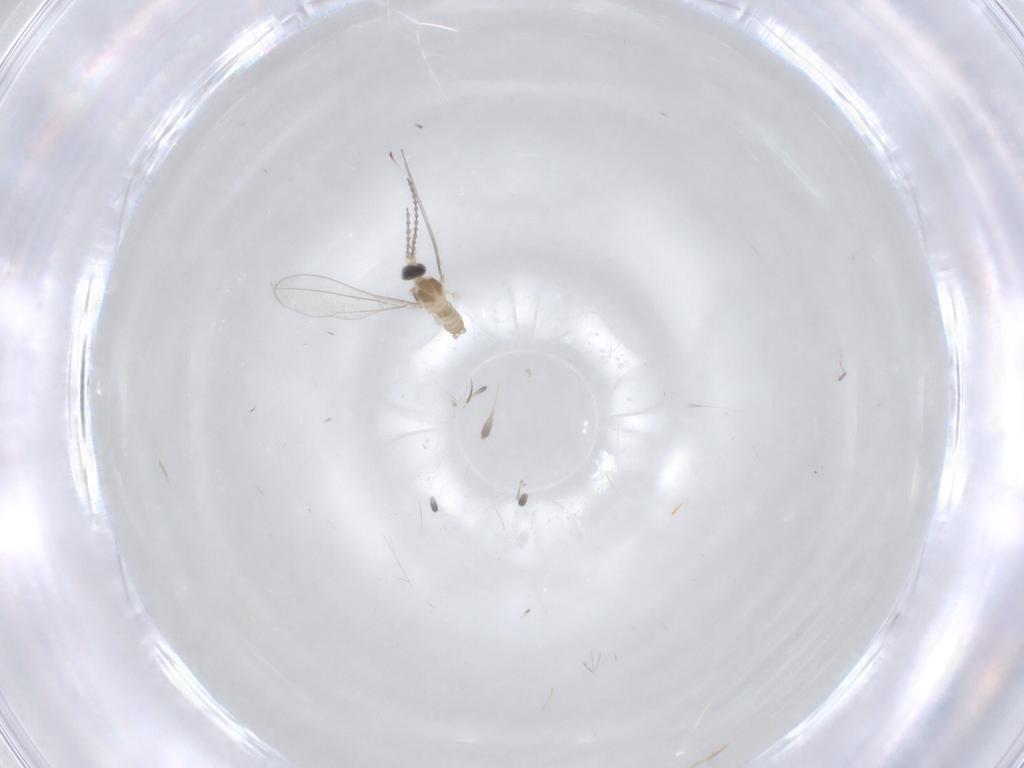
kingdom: Animalia
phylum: Arthropoda
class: Insecta
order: Diptera
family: Cecidomyiidae
